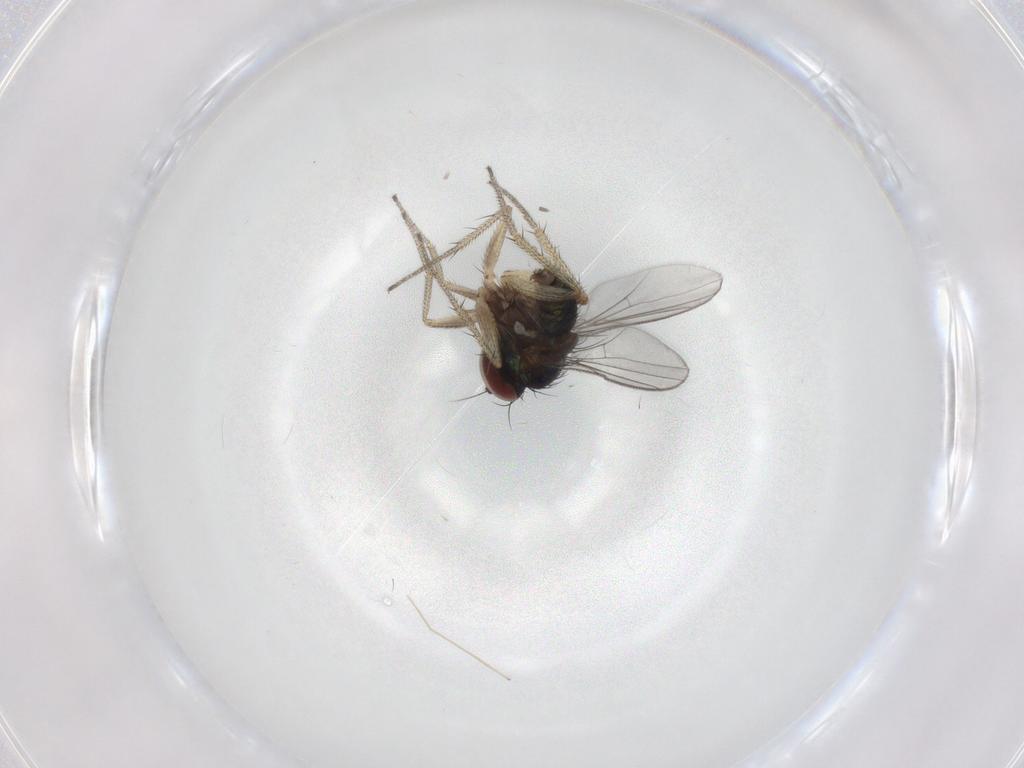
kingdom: Animalia
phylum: Arthropoda
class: Insecta
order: Diptera
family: Chironomidae
